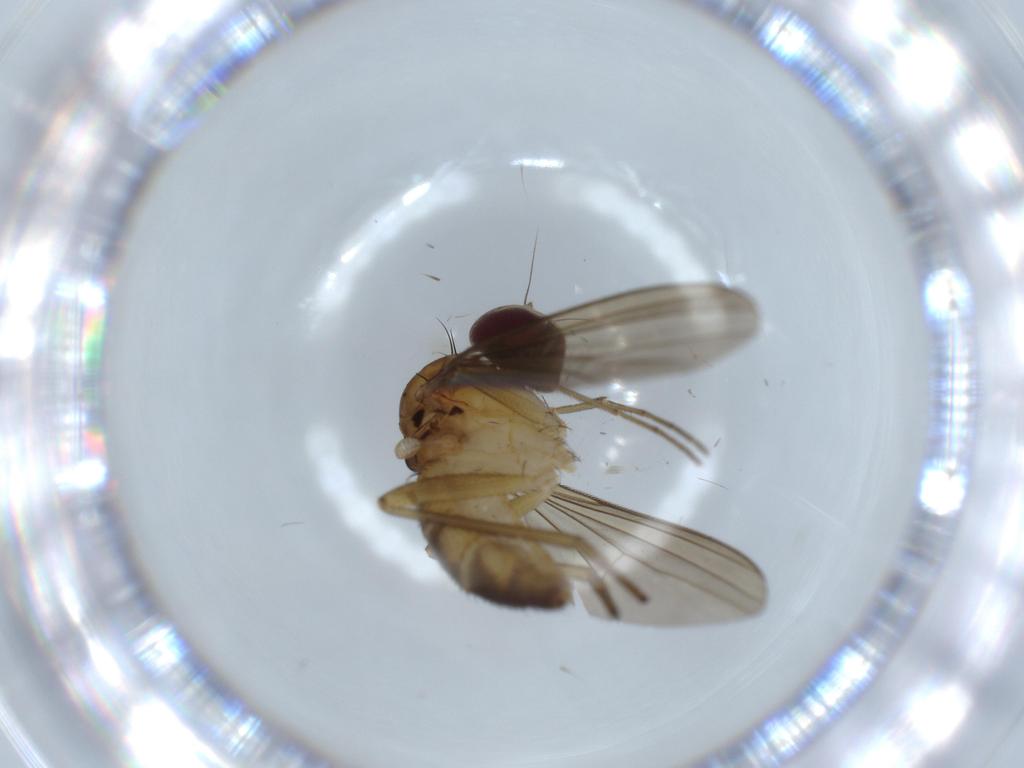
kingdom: Animalia
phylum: Arthropoda
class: Insecta
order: Diptera
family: Dolichopodidae
